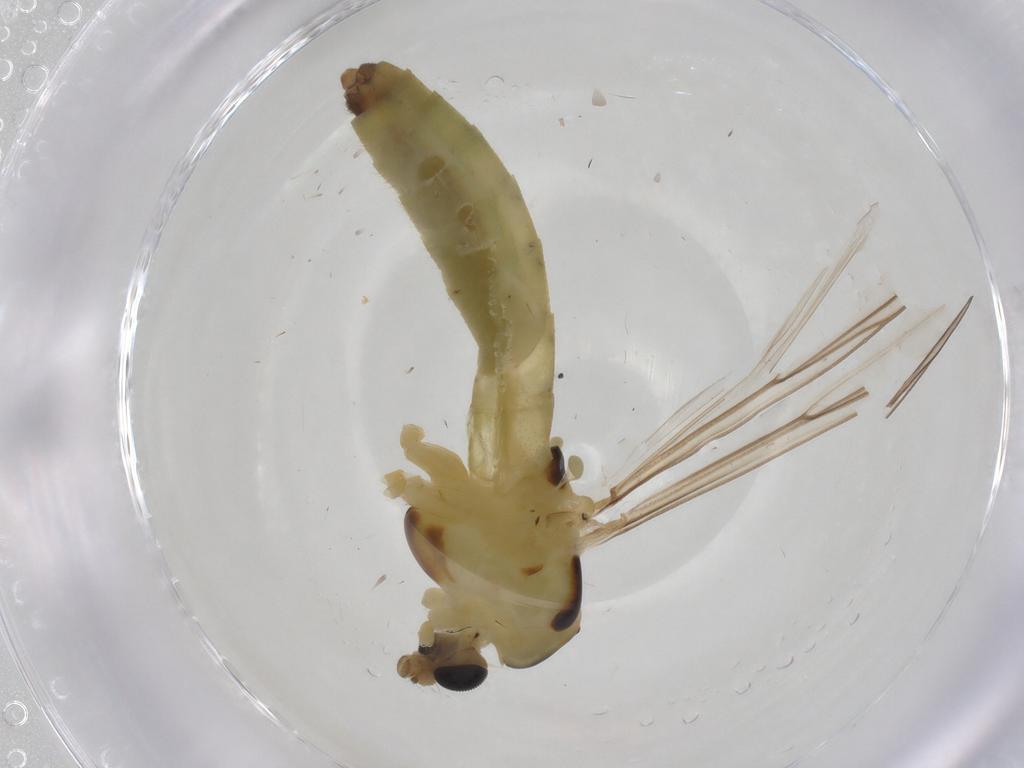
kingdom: Animalia
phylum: Arthropoda
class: Insecta
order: Diptera
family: Chironomidae
